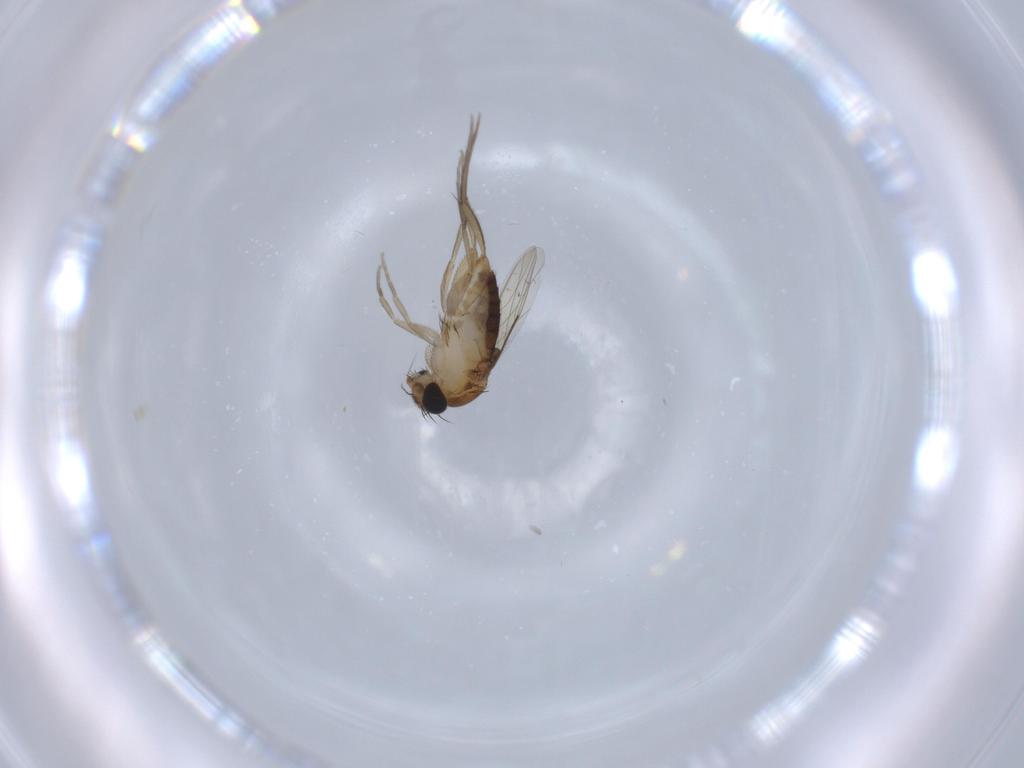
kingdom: Animalia
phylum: Arthropoda
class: Insecta
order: Diptera
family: Phoridae
